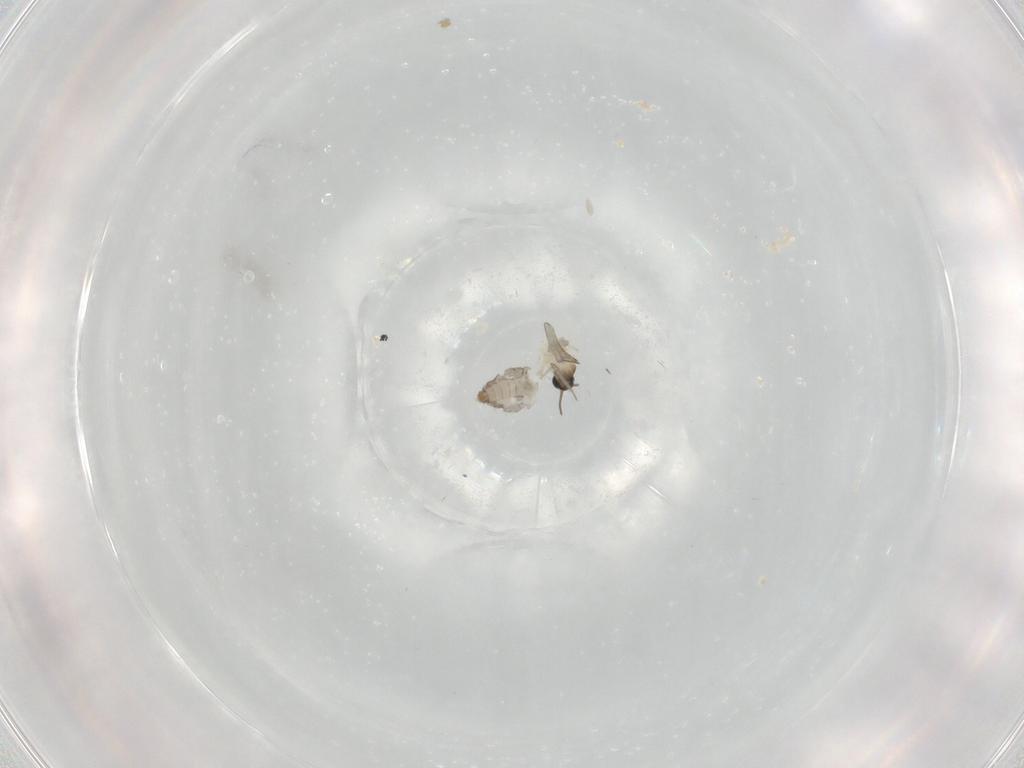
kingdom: Animalia
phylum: Arthropoda
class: Insecta
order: Diptera
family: Cecidomyiidae
